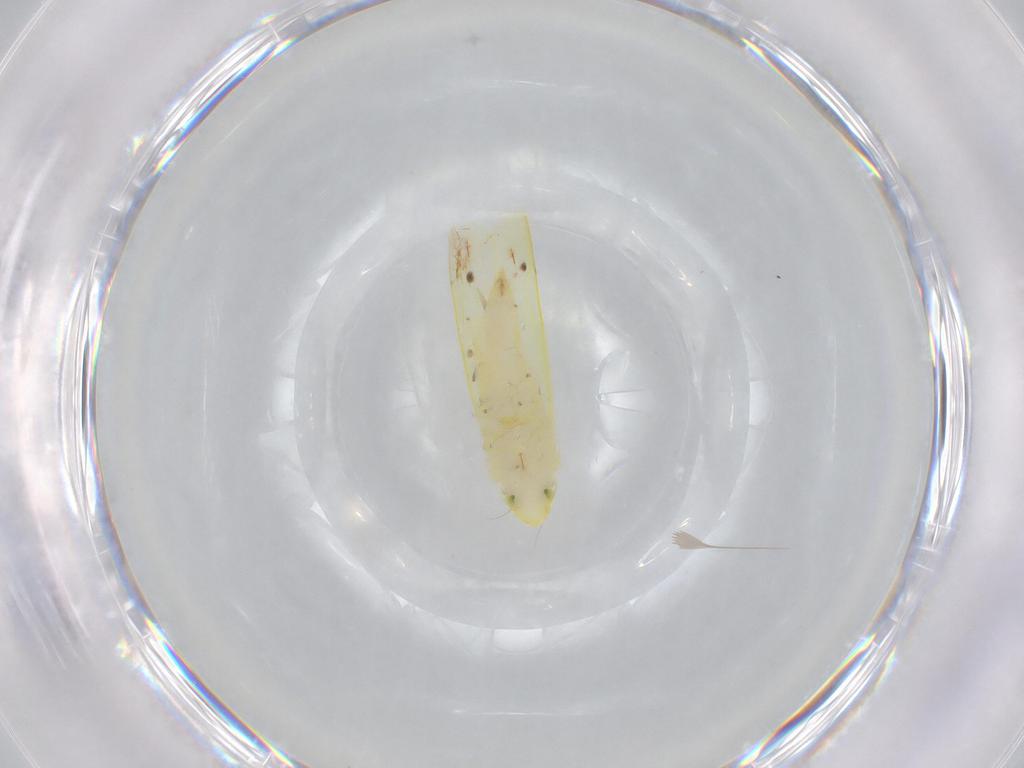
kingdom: Animalia
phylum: Arthropoda
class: Insecta
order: Hemiptera
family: Cicadellidae
